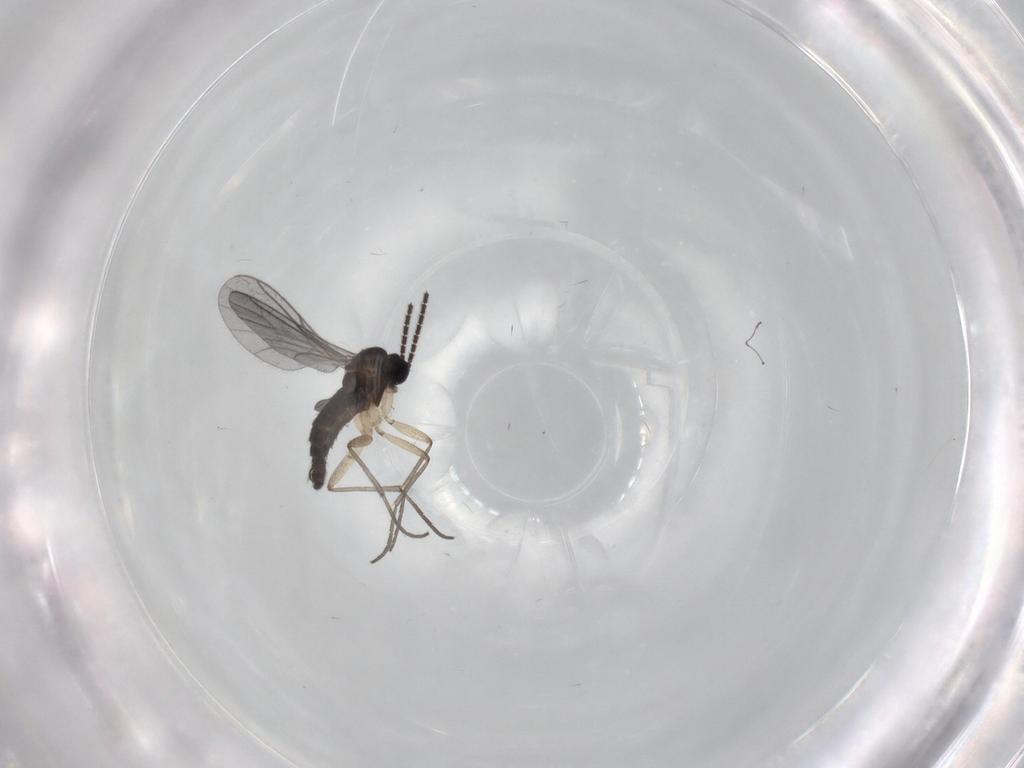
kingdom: Animalia
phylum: Arthropoda
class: Insecta
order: Diptera
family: Sciaridae
